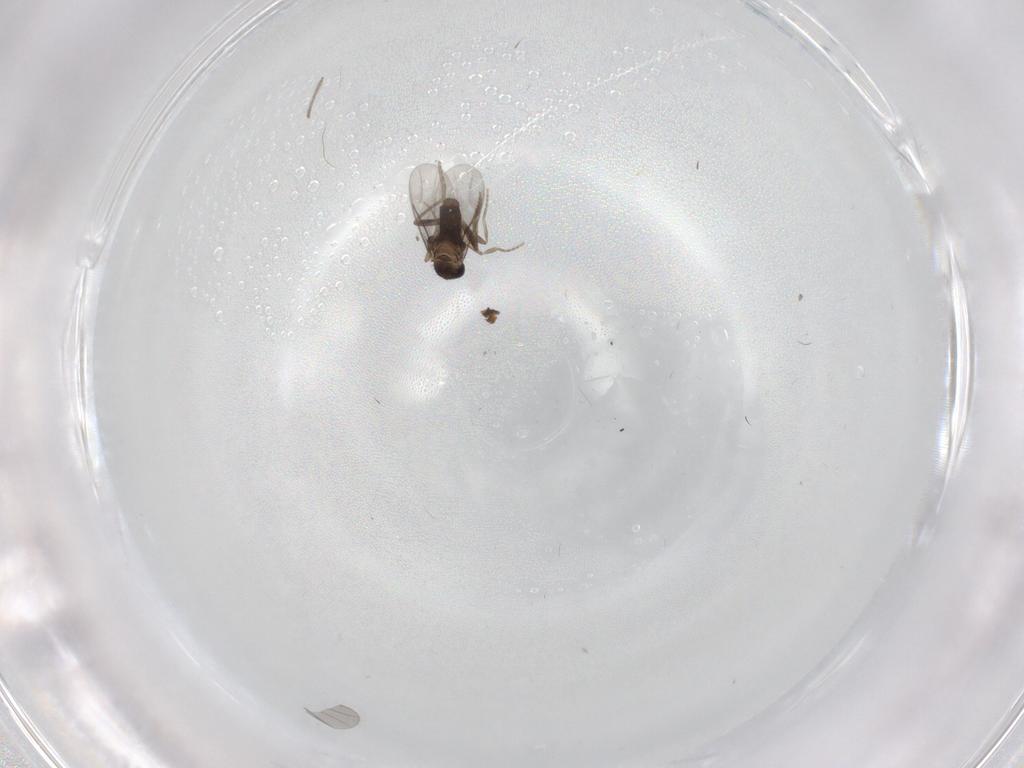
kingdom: Animalia
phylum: Arthropoda
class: Insecta
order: Diptera
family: Chironomidae
